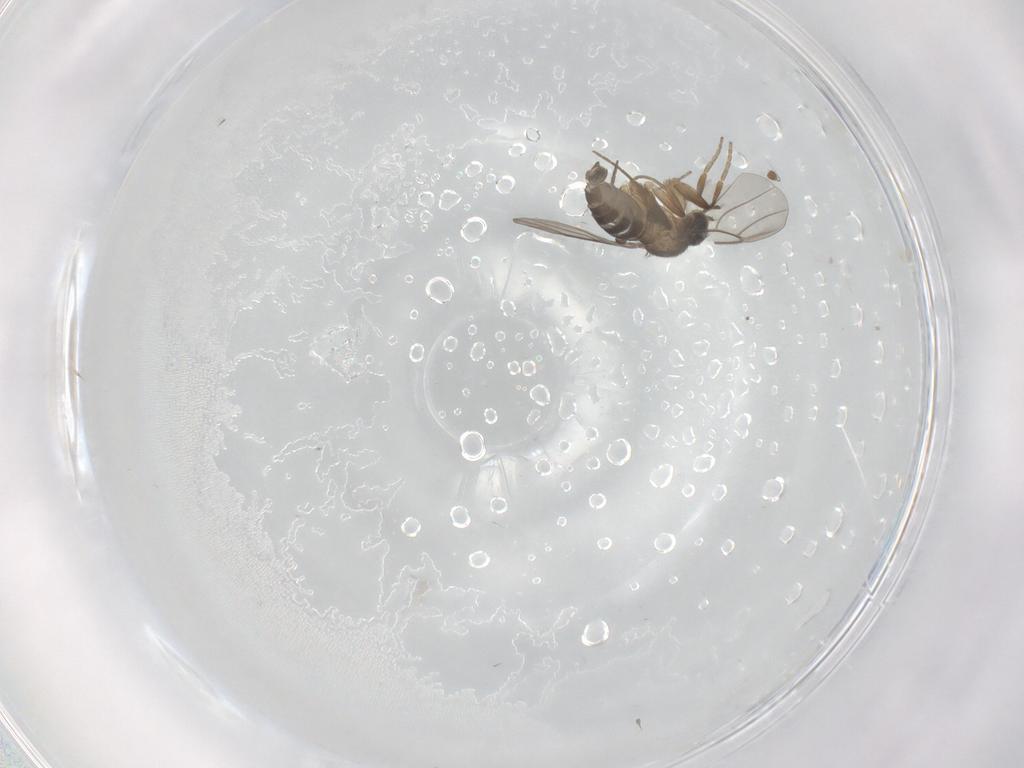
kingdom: Animalia
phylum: Arthropoda
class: Insecta
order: Diptera
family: Phoridae
